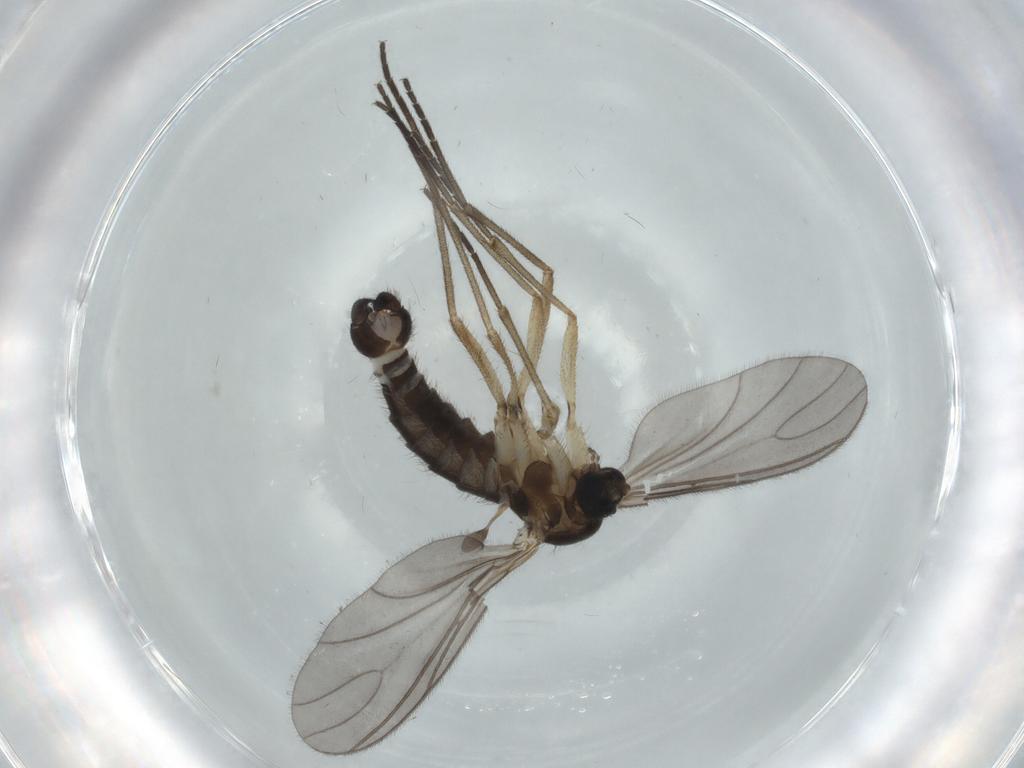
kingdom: Animalia
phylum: Arthropoda
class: Insecta
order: Diptera
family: Sciaridae
